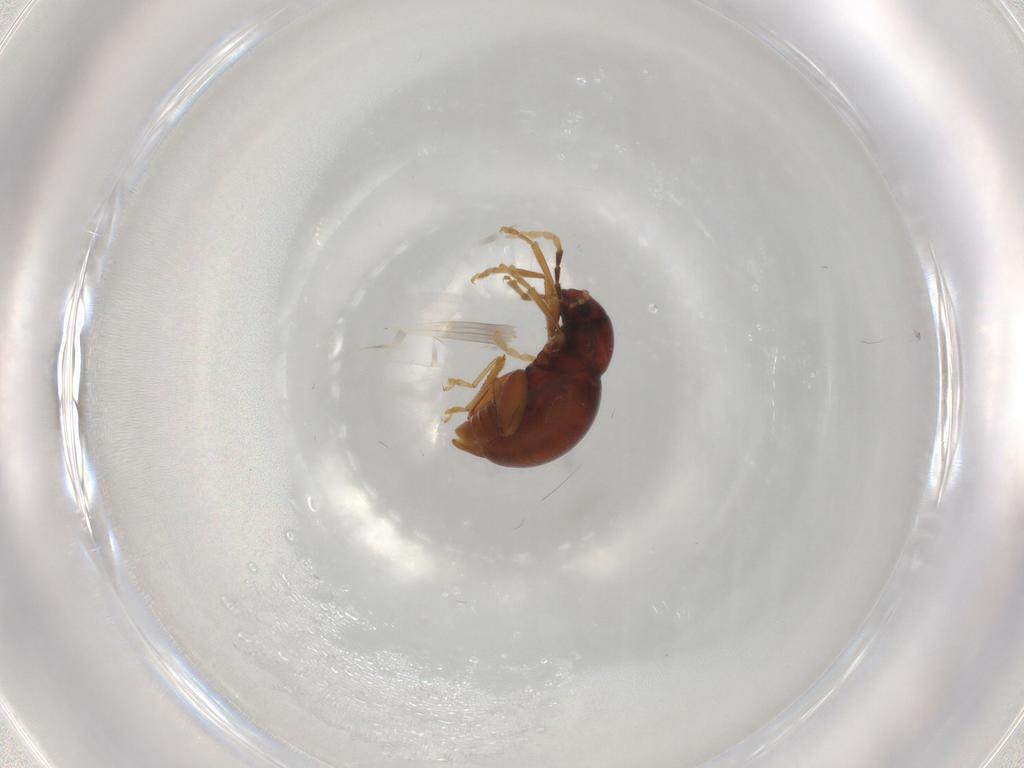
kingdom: Animalia
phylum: Arthropoda
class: Insecta
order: Coleoptera
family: Chrysomelidae
